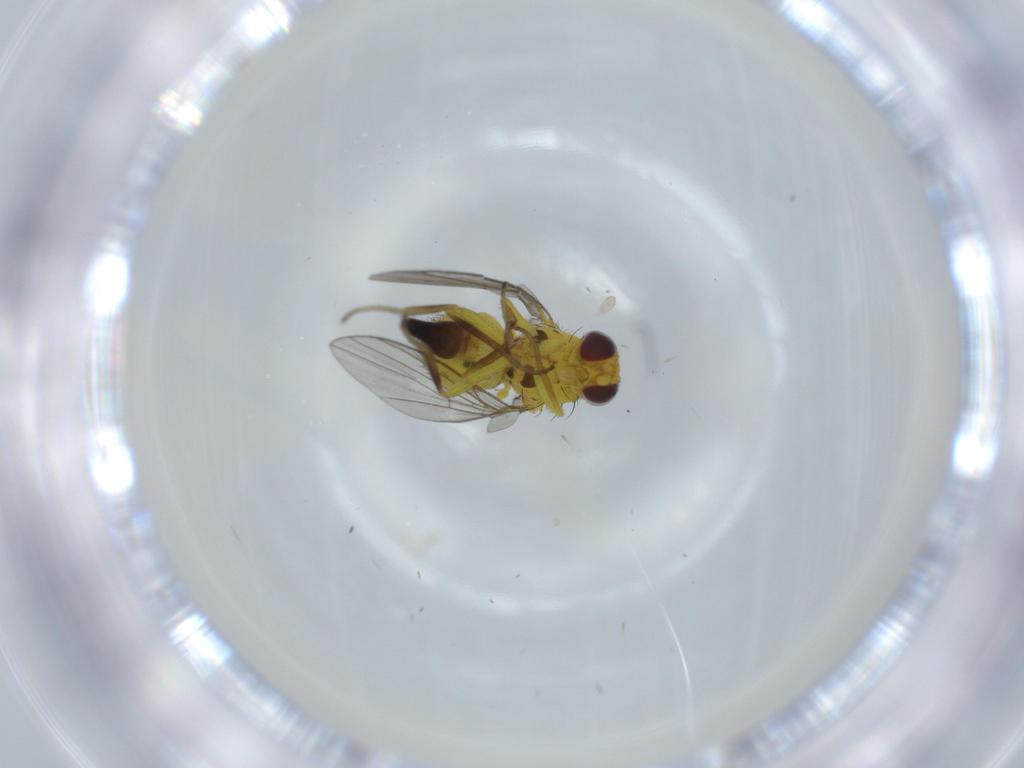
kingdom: Animalia
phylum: Arthropoda
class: Insecta
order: Diptera
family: Agromyzidae
